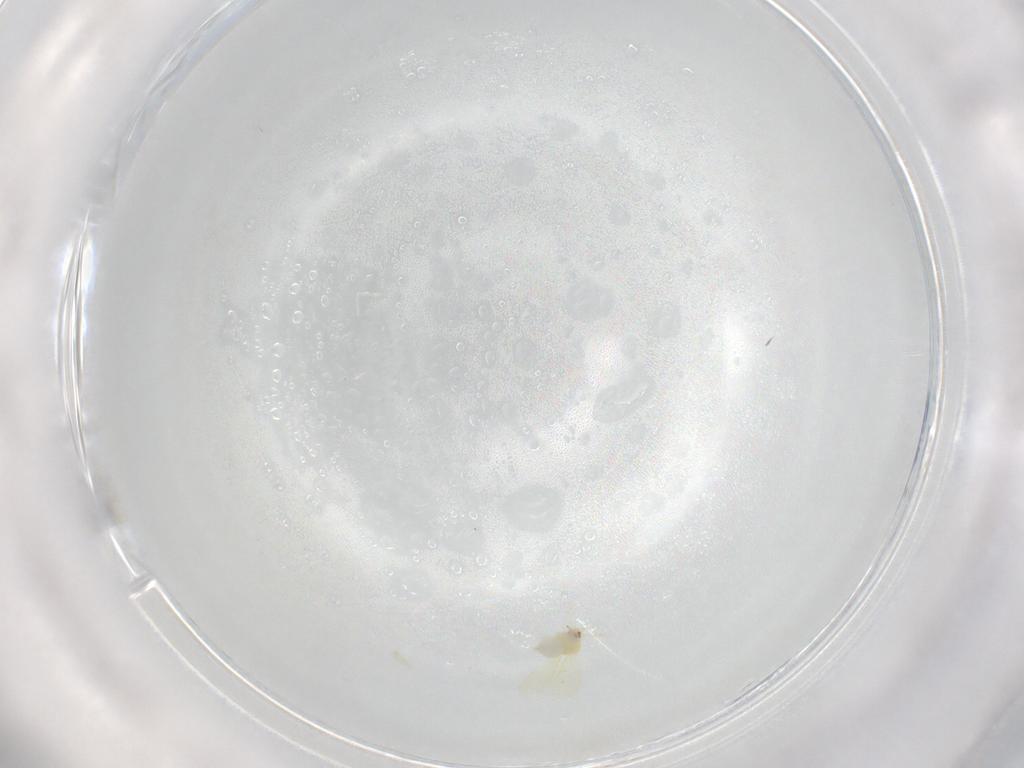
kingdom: Animalia
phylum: Arthropoda
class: Insecta
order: Hemiptera
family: Aleyrodidae
